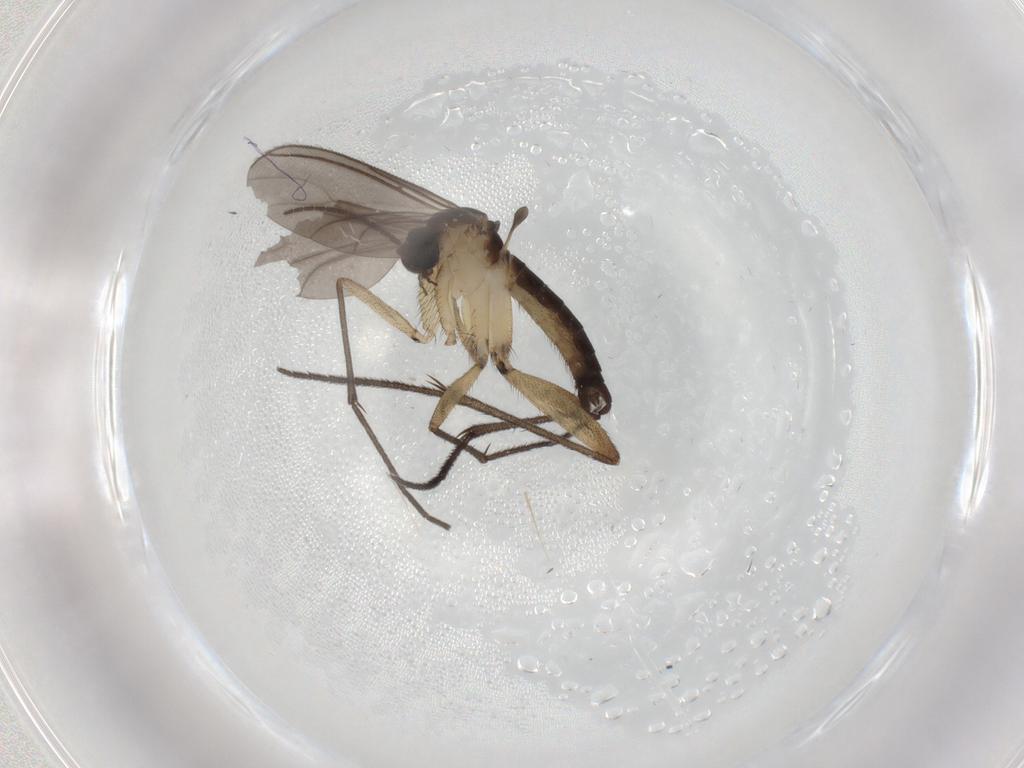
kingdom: Animalia
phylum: Arthropoda
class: Insecta
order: Diptera
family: Sciaridae
